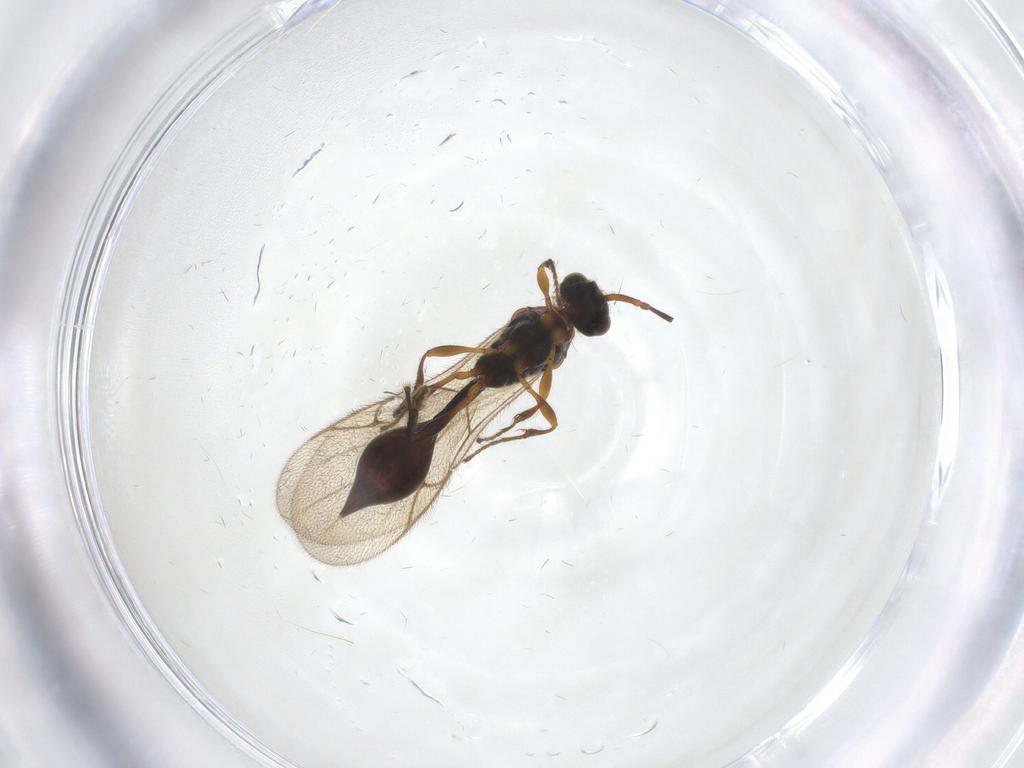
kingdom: Animalia
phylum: Arthropoda
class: Insecta
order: Hymenoptera
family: Diapriidae
